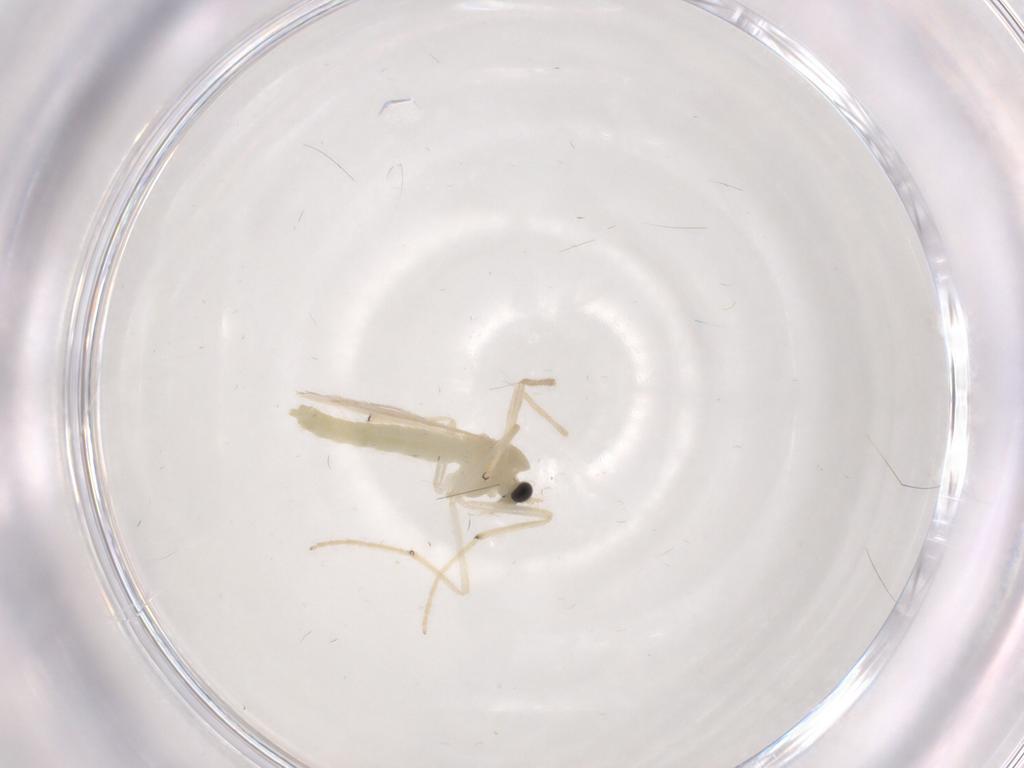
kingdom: Animalia
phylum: Arthropoda
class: Insecta
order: Diptera
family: Chironomidae
